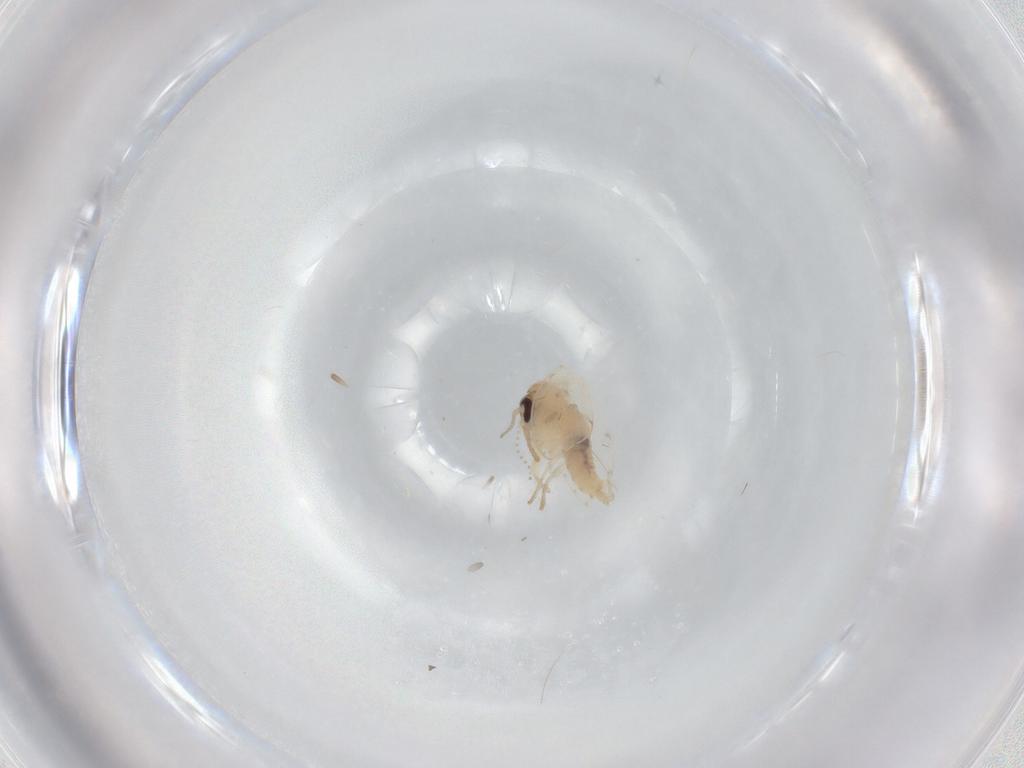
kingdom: Animalia
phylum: Arthropoda
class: Insecta
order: Diptera
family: Psychodidae
